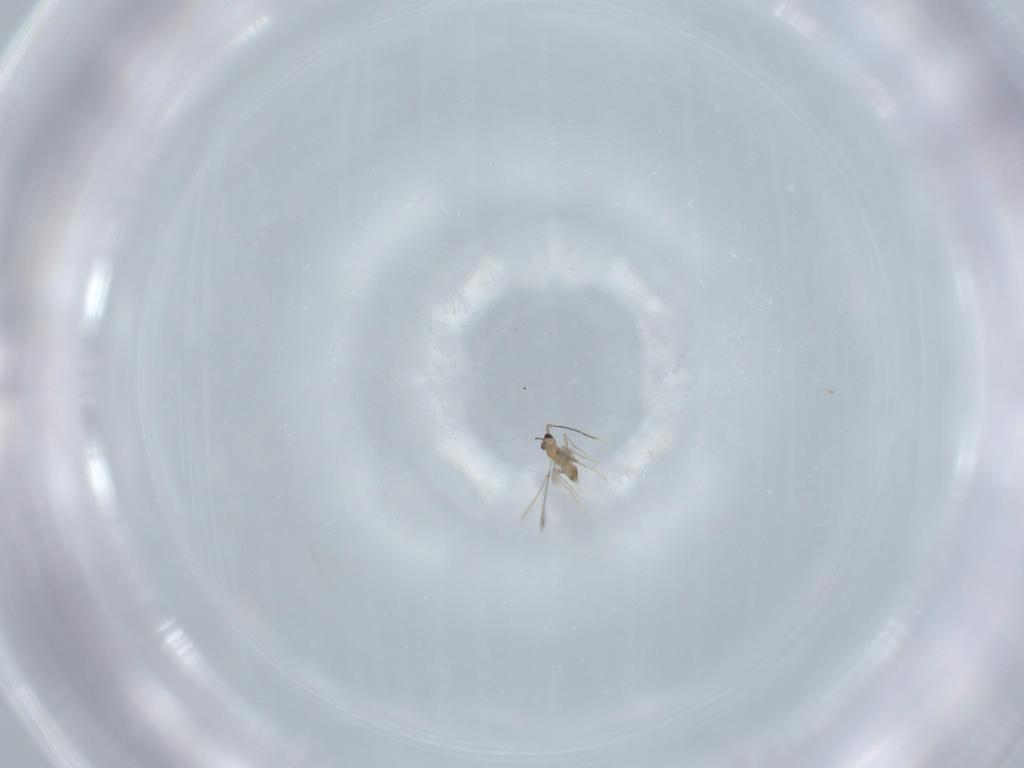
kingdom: Animalia
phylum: Arthropoda
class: Insecta
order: Hymenoptera
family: Mymaridae
